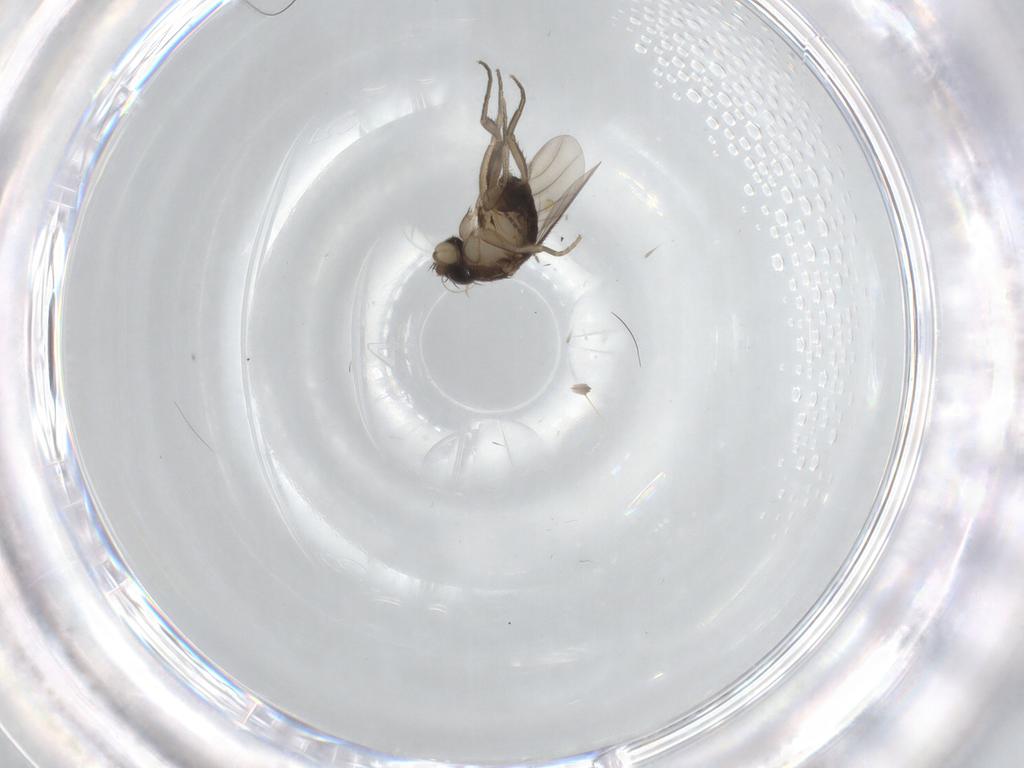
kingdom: Animalia
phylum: Arthropoda
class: Insecta
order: Diptera
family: Phoridae
